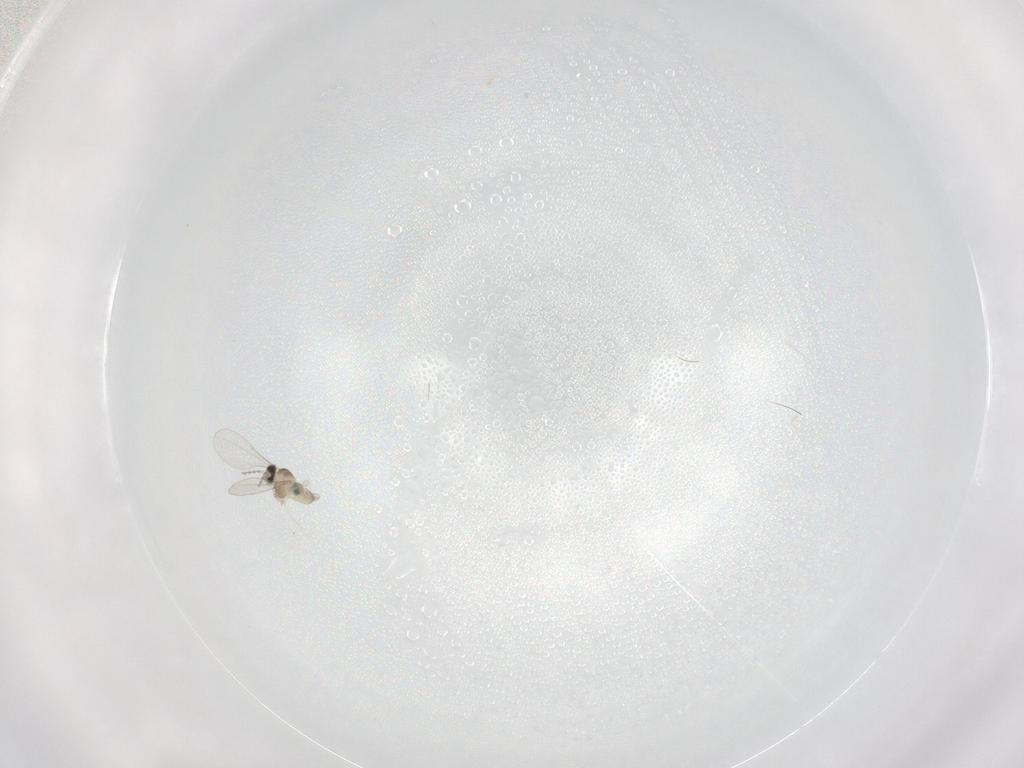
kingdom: Animalia
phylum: Arthropoda
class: Insecta
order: Diptera
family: Cecidomyiidae
